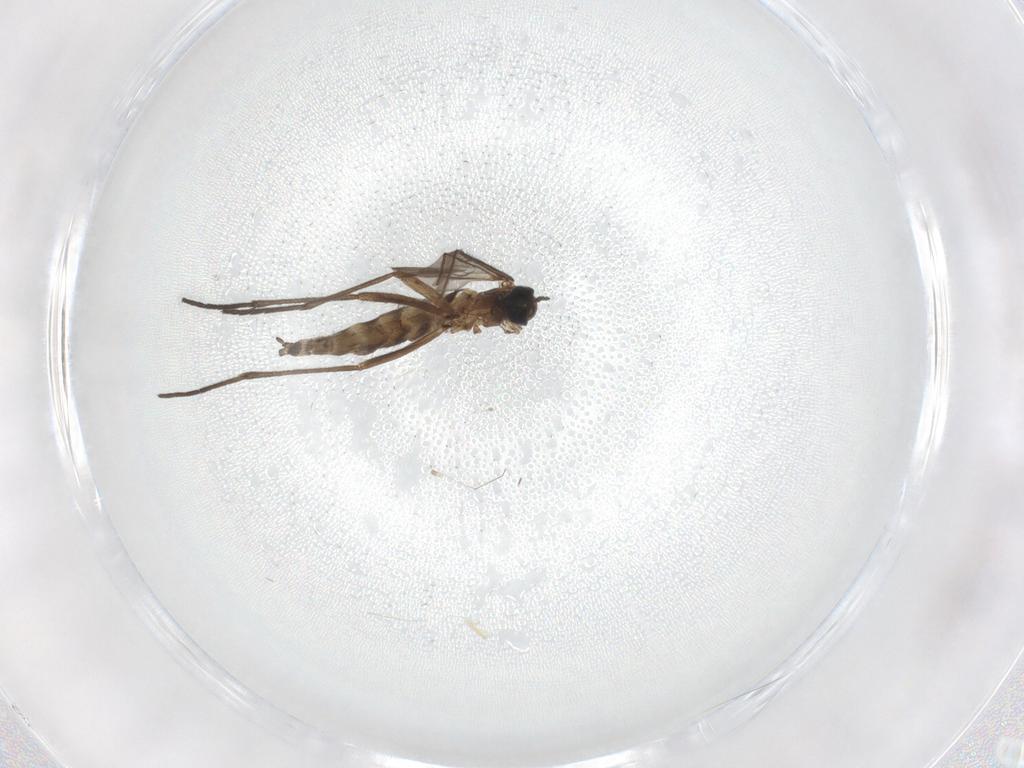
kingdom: Animalia
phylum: Arthropoda
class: Insecta
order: Diptera
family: Sciaridae
